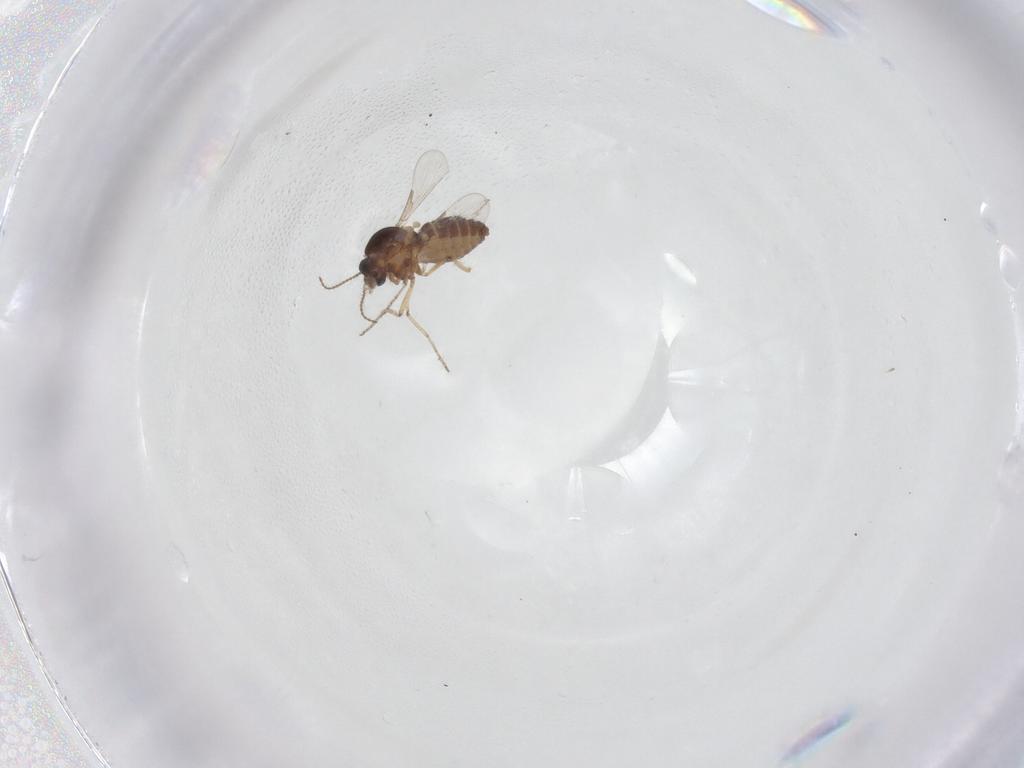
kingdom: Animalia
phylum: Arthropoda
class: Insecta
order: Diptera
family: Ceratopogonidae
